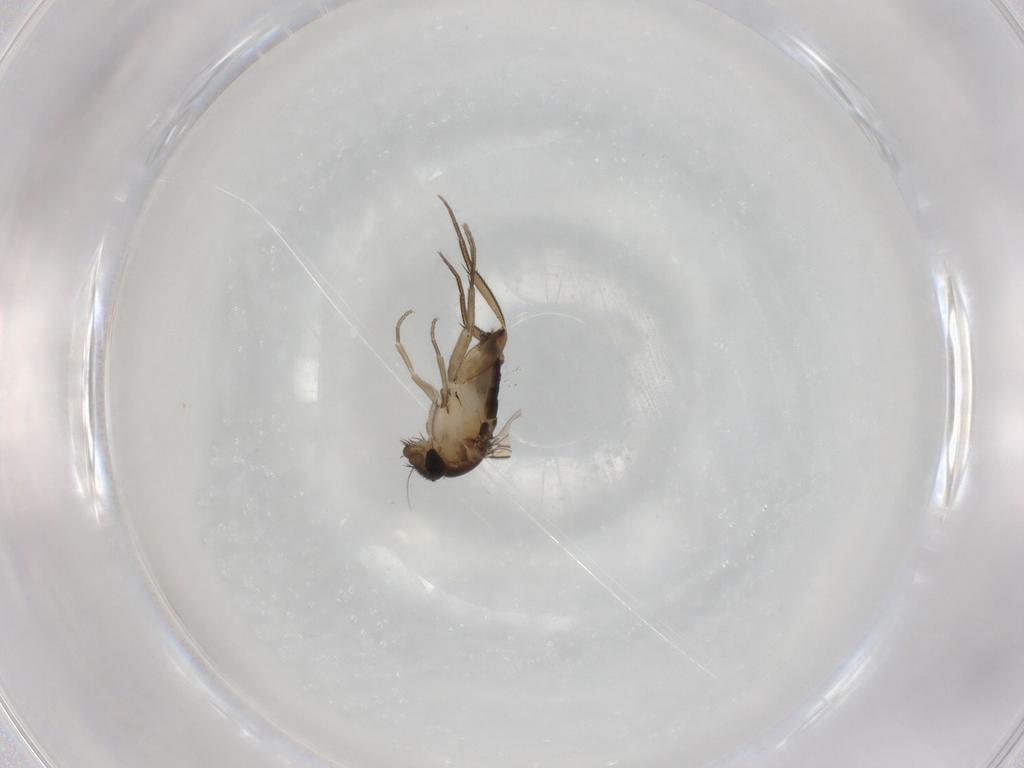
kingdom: Animalia
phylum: Arthropoda
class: Insecta
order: Diptera
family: Phoridae
